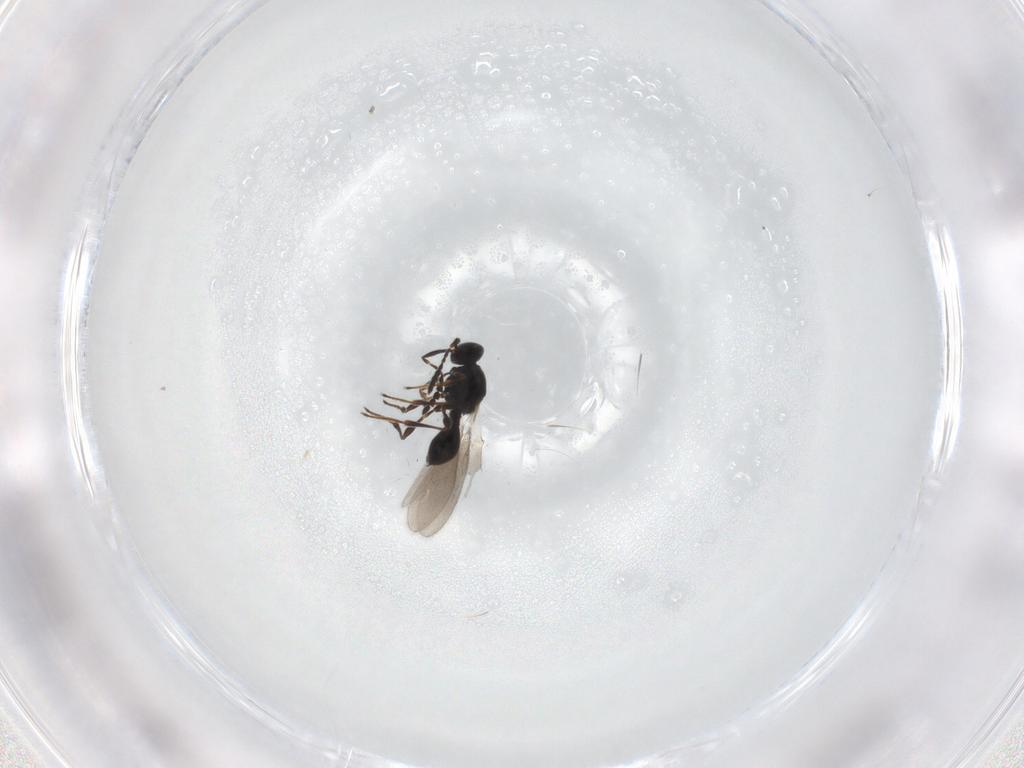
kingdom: Animalia
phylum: Arthropoda
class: Insecta
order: Hymenoptera
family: Platygastridae
